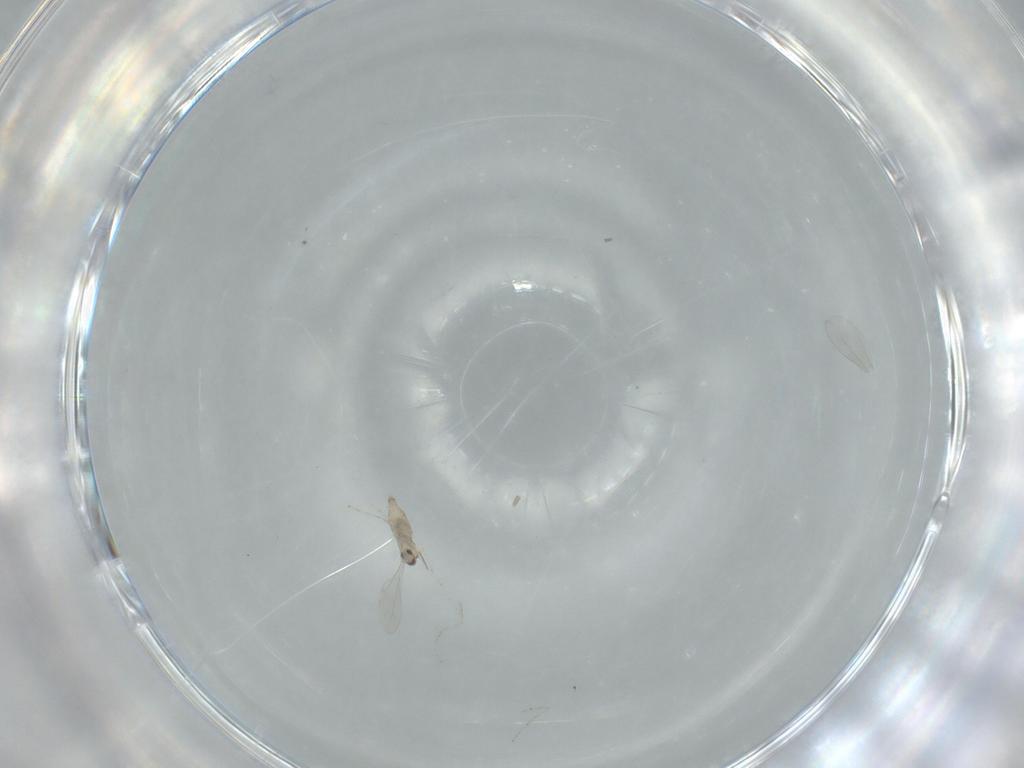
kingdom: Animalia
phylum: Arthropoda
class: Insecta
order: Diptera
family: Cecidomyiidae
